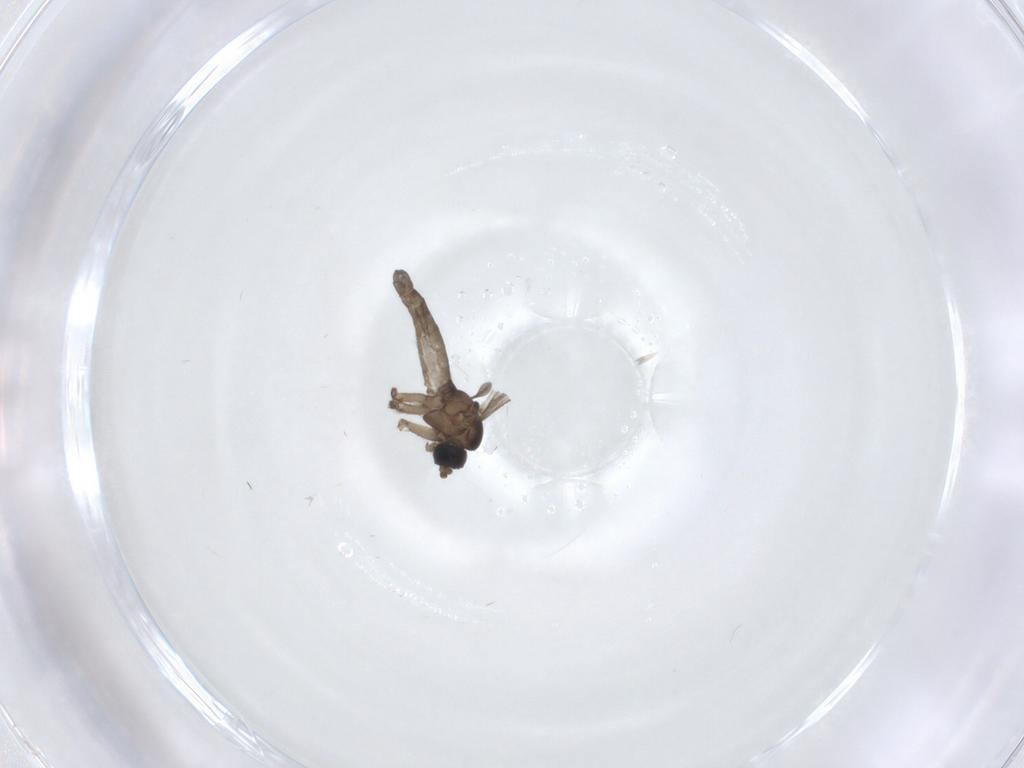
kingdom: Animalia
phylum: Arthropoda
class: Insecta
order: Diptera
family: Sciaridae
